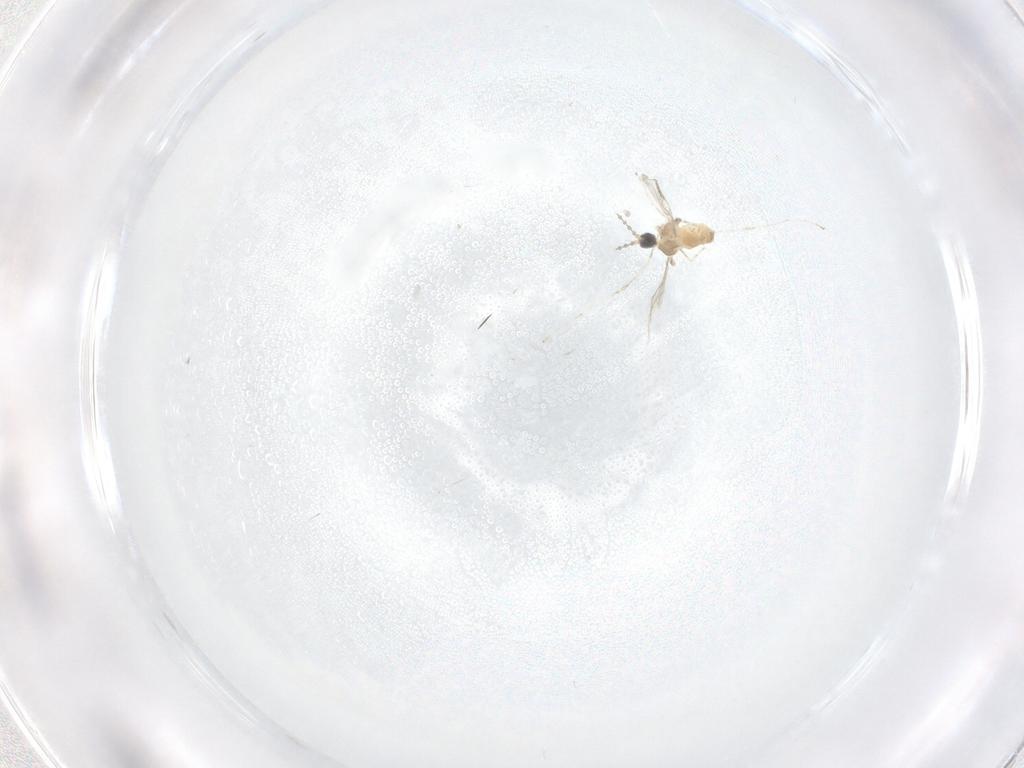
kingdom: Animalia
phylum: Arthropoda
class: Insecta
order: Diptera
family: Cecidomyiidae
